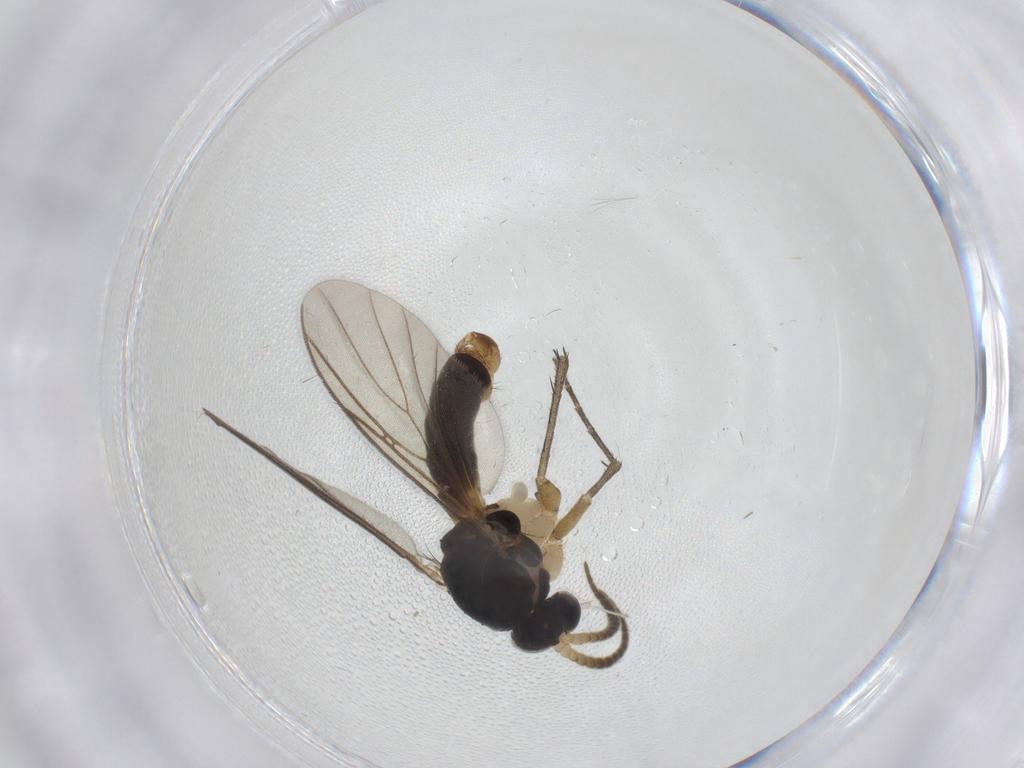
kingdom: Animalia
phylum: Arthropoda
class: Insecta
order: Diptera
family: Mycetophilidae
